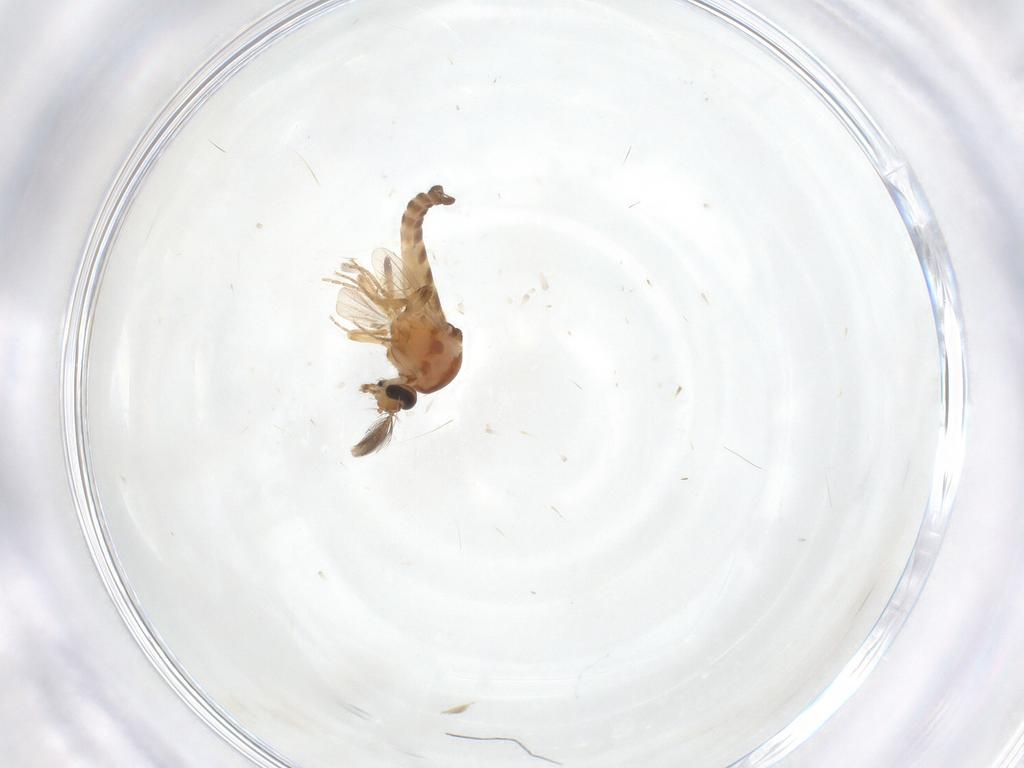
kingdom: Animalia
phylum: Arthropoda
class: Insecta
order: Diptera
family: Ceratopogonidae
